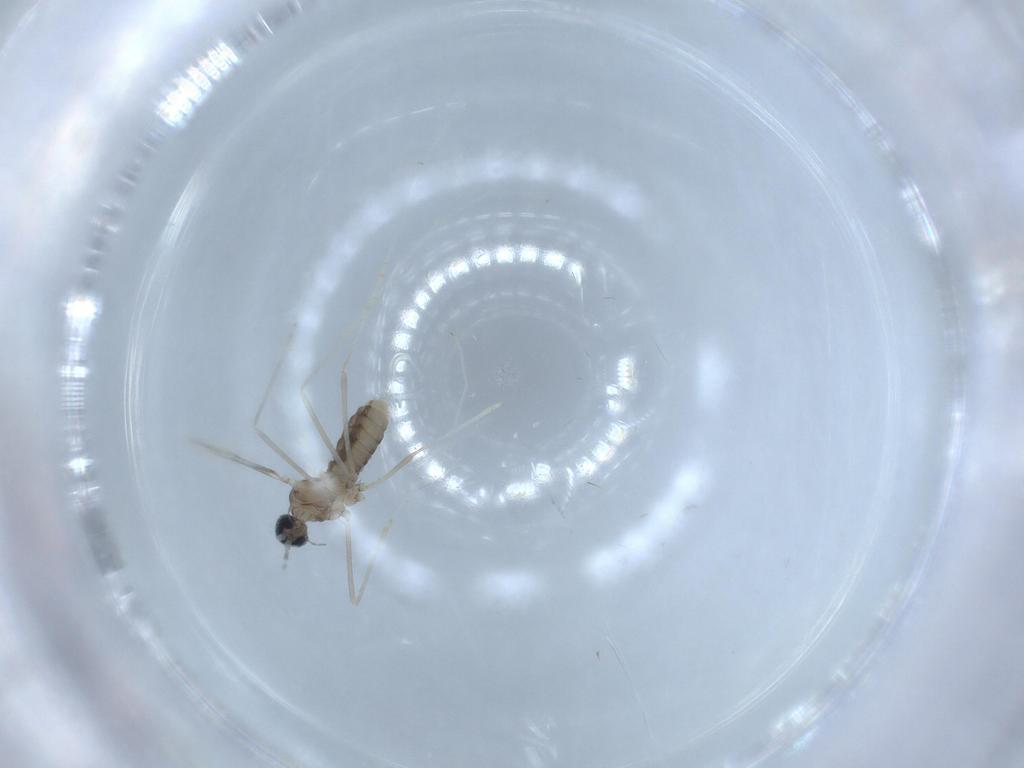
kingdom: Animalia
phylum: Arthropoda
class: Insecta
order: Diptera
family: Cecidomyiidae
